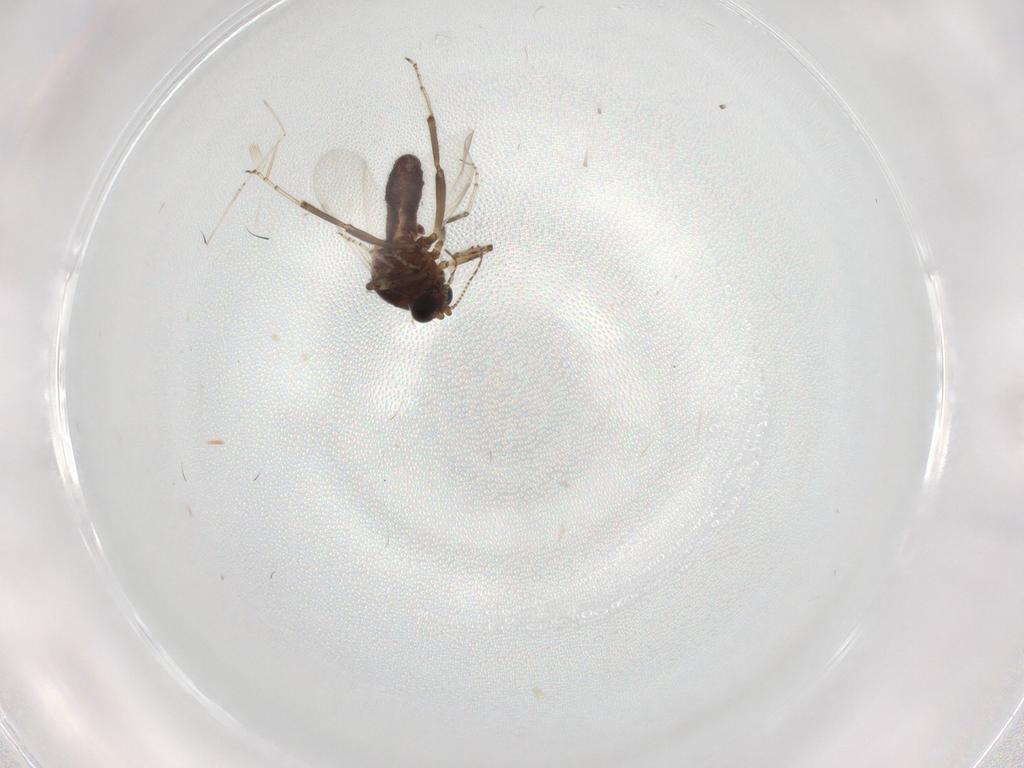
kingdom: Animalia
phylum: Arthropoda
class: Insecta
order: Diptera
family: Ceratopogonidae
